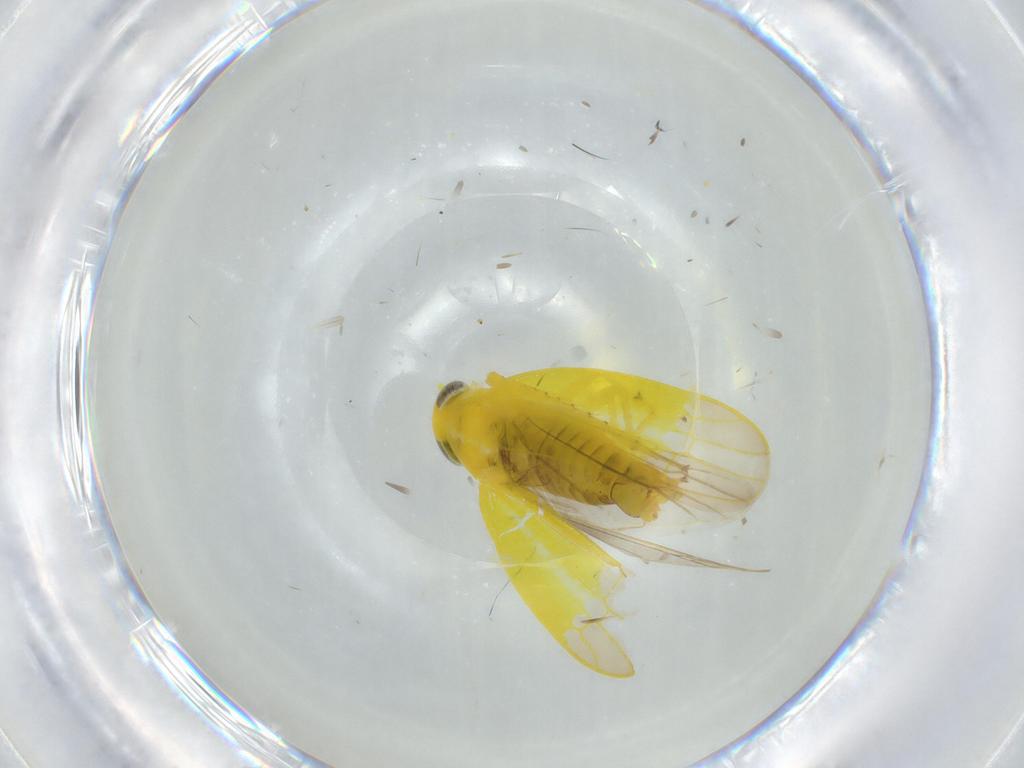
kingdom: Animalia
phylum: Arthropoda
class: Insecta
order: Hemiptera
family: Cicadellidae
